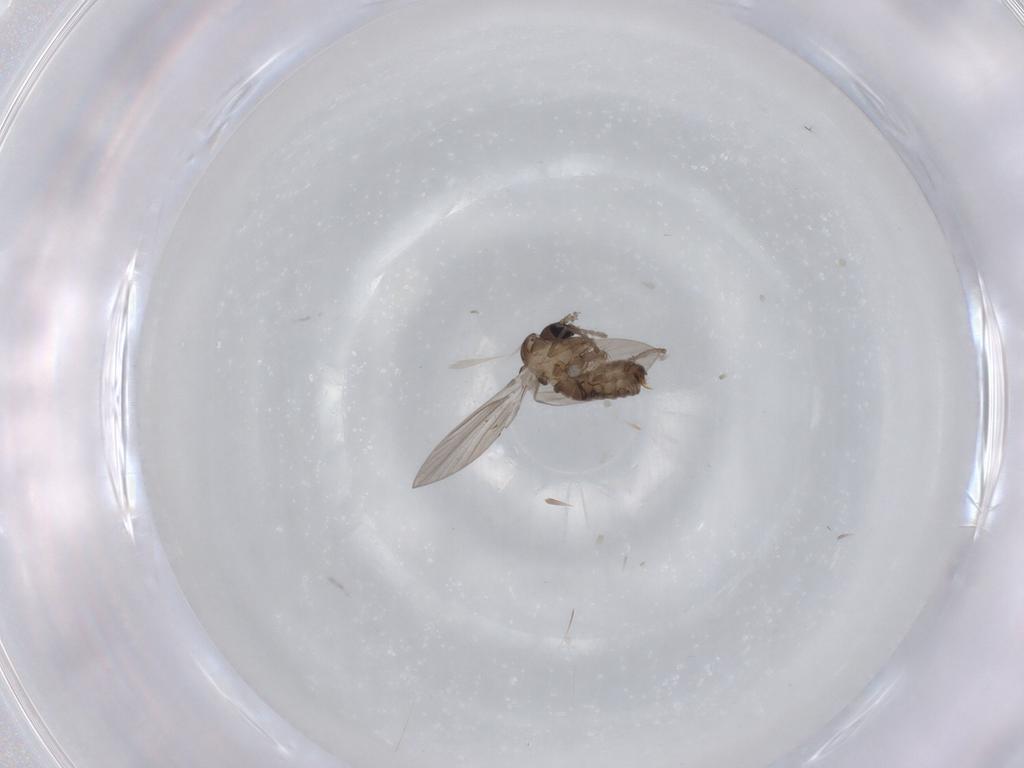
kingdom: Animalia
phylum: Arthropoda
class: Insecta
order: Diptera
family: Psychodidae
